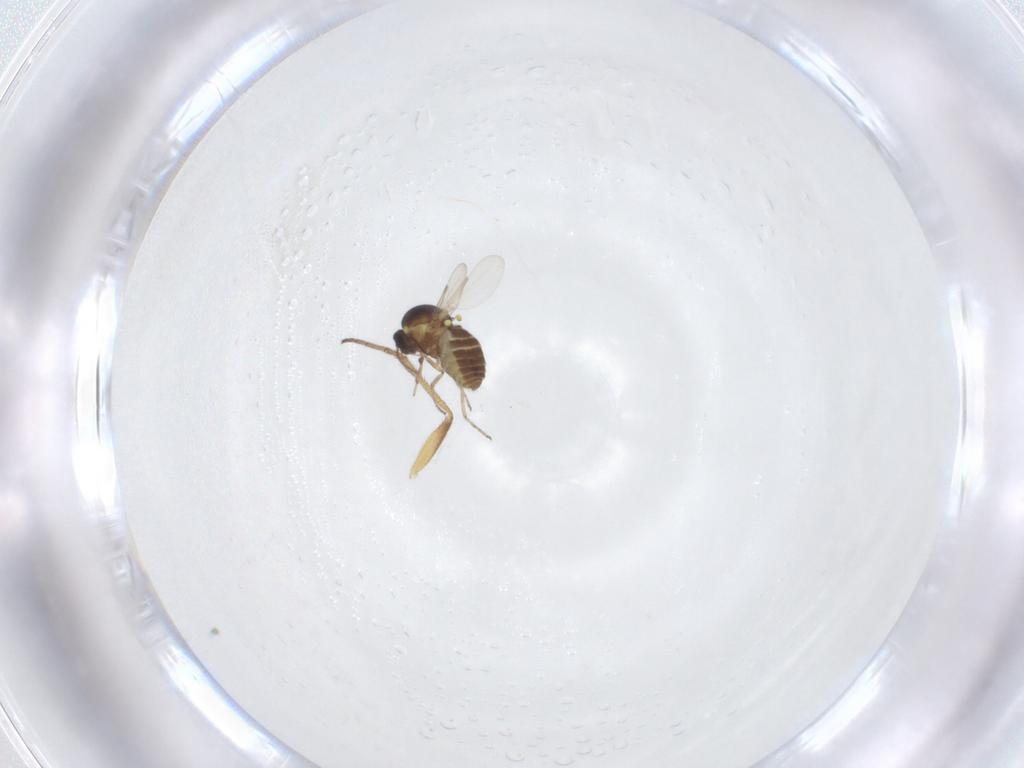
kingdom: Animalia
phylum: Arthropoda
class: Insecta
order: Diptera
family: Ceratopogonidae
